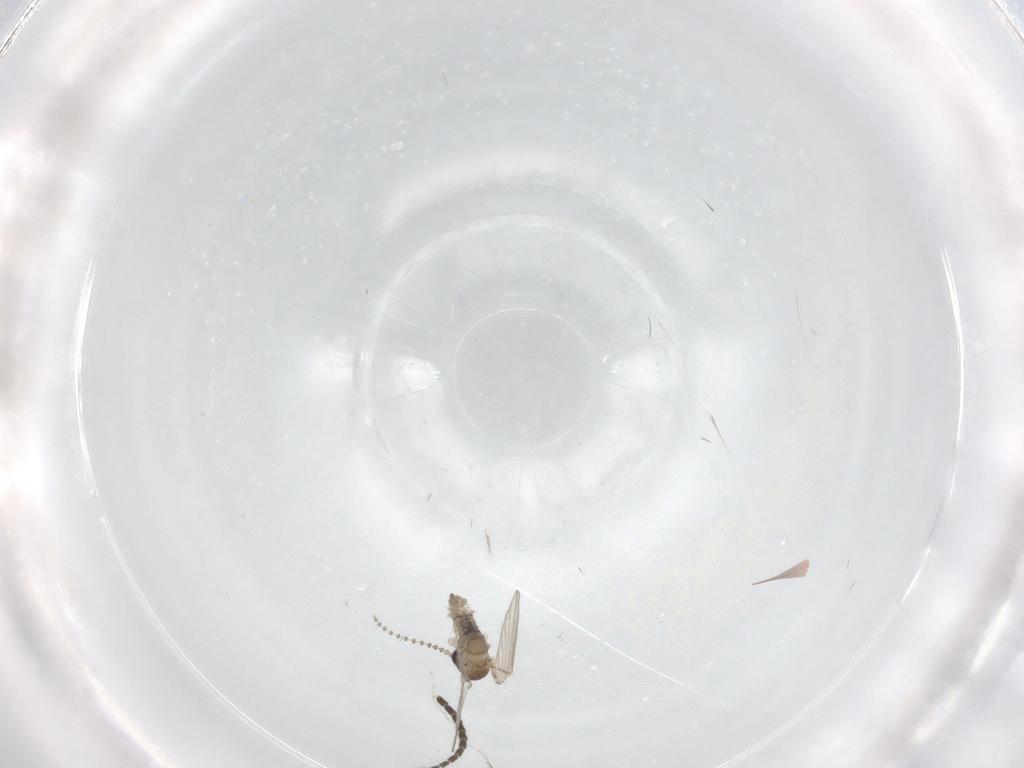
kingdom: Animalia
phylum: Arthropoda
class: Insecta
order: Diptera
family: Psychodidae
